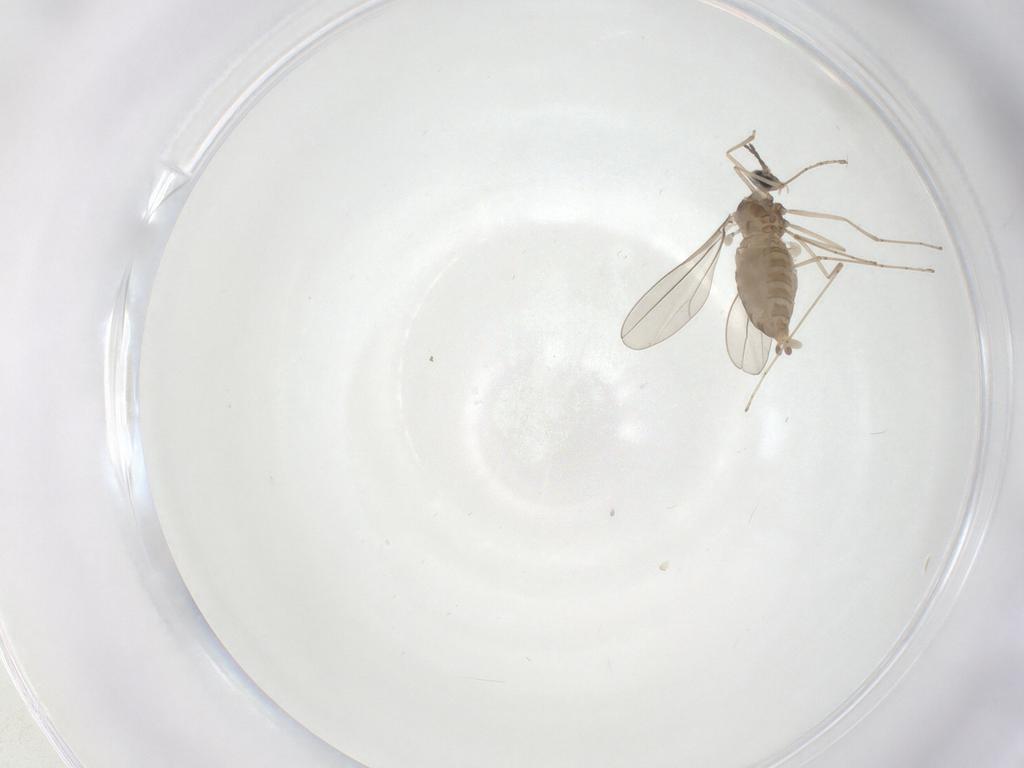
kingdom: Animalia
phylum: Arthropoda
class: Insecta
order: Diptera
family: Cecidomyiidae
